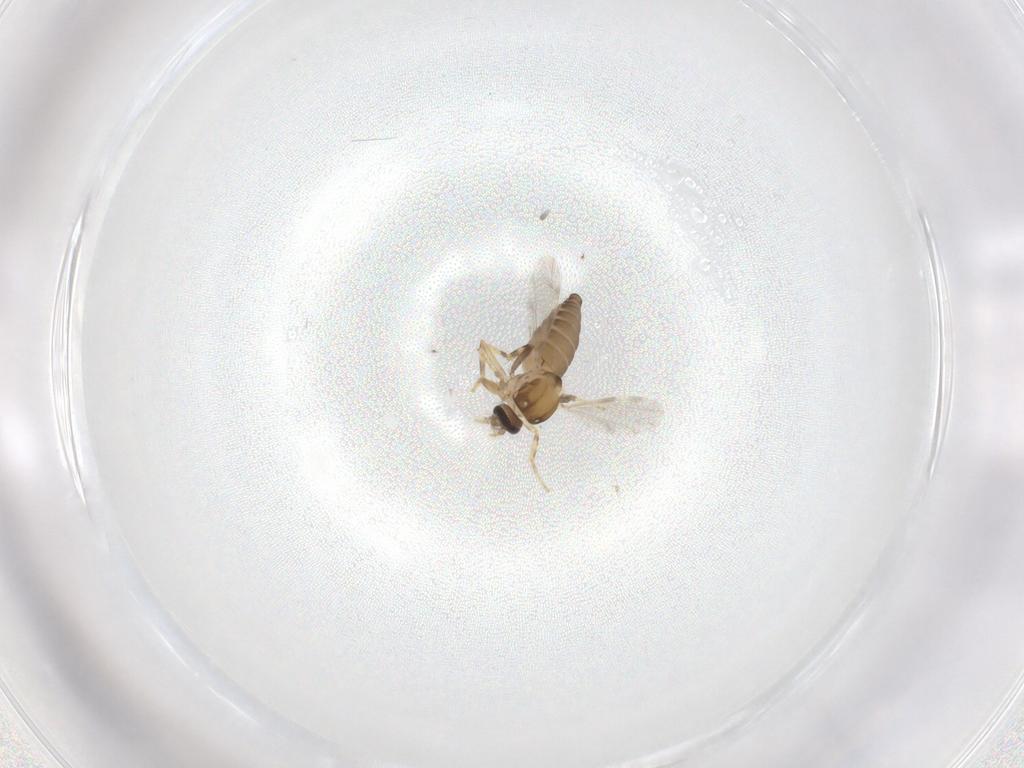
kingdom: Animalia
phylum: Arthropoda
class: Insecta
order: Diptera
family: Ceratopogonidae
